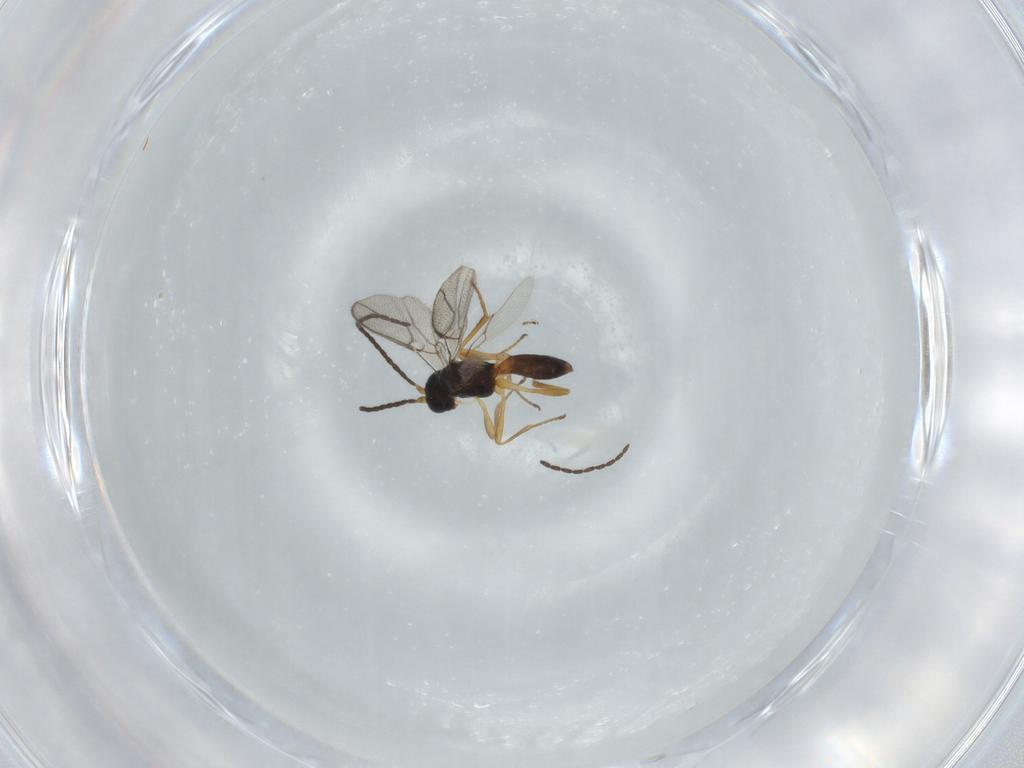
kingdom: Animalia
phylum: Arthropoda
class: Insecta
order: Hymenoptera
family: Braconidae
